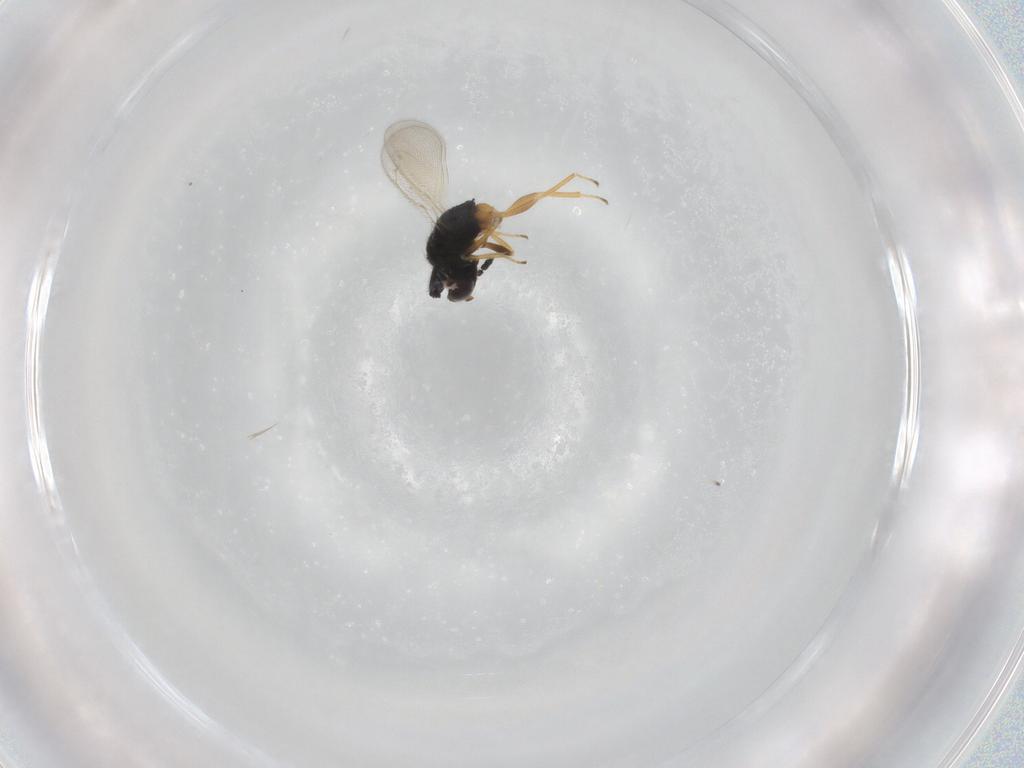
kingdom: Animalia
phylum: Arthropoda
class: Insecta
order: Hymenoptera
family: Eulophidae
